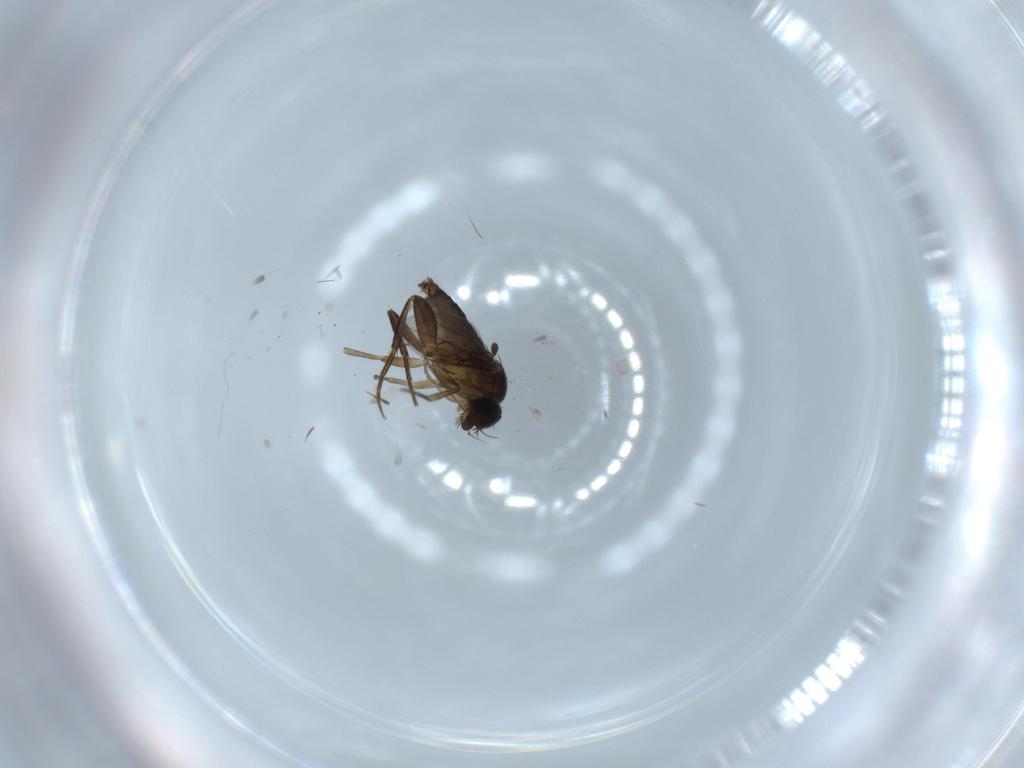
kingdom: Animalia
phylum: Arthropoda
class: Insecta
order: Diptera
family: Phoridae
